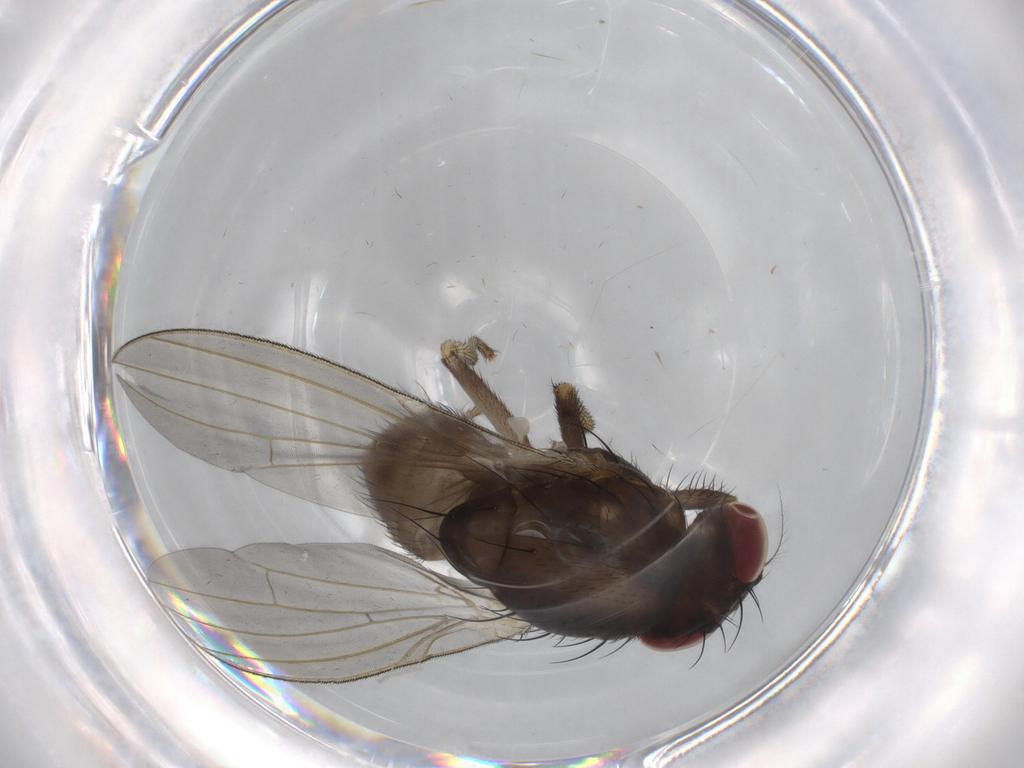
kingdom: Animalia
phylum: Arthropoda
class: Insecta
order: Diptera
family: Lauxaniidae
